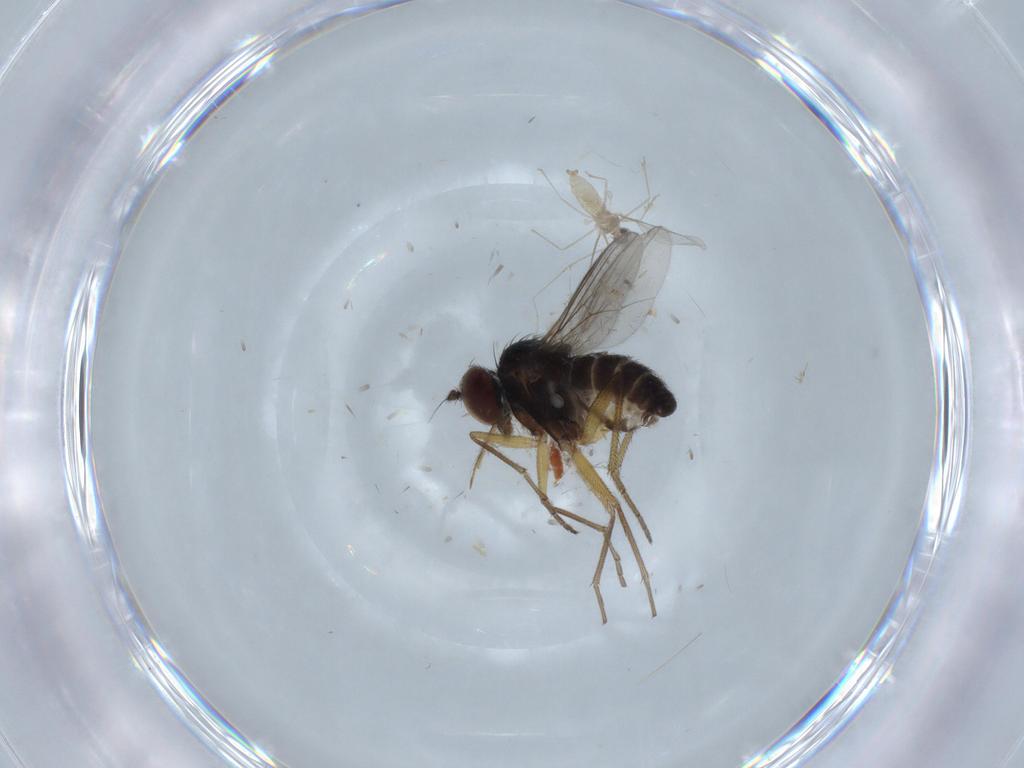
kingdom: Animalia
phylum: Arthropoda
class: Insecta
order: Diptera
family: Dolichopodidae
